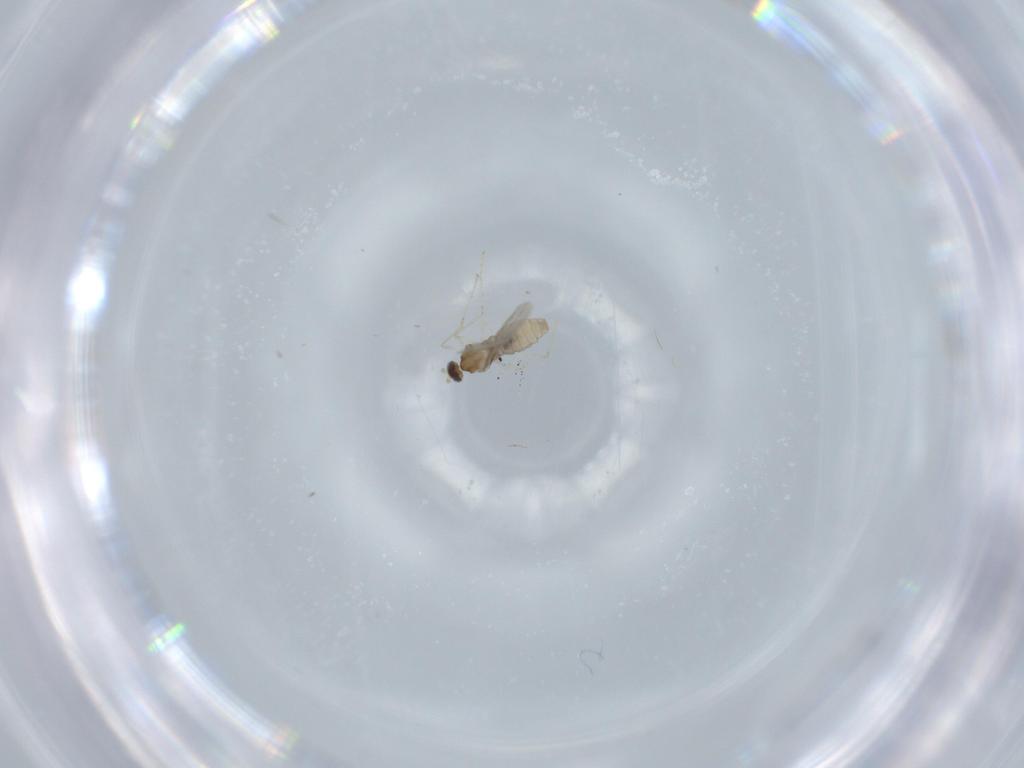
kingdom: Animalia
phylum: Arthropoda
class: Insecta
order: Diptera
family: Cecidomyiidae
